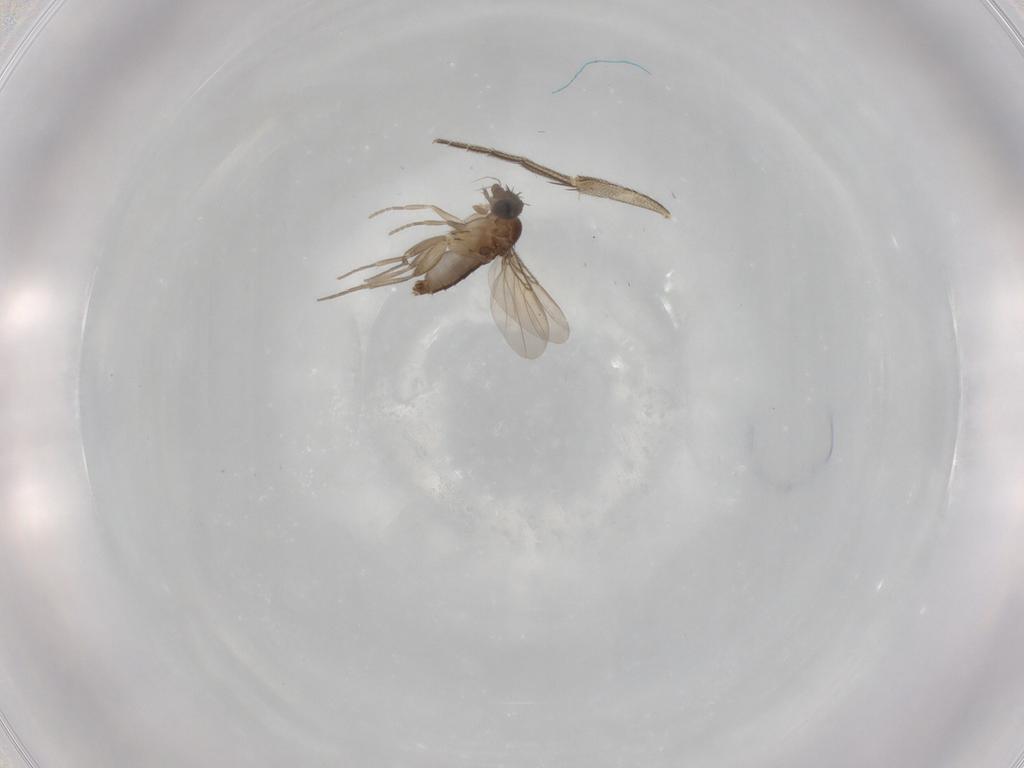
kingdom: Animalia
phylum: Arthropoda
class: Insecta
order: Diptera
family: Phoridae
